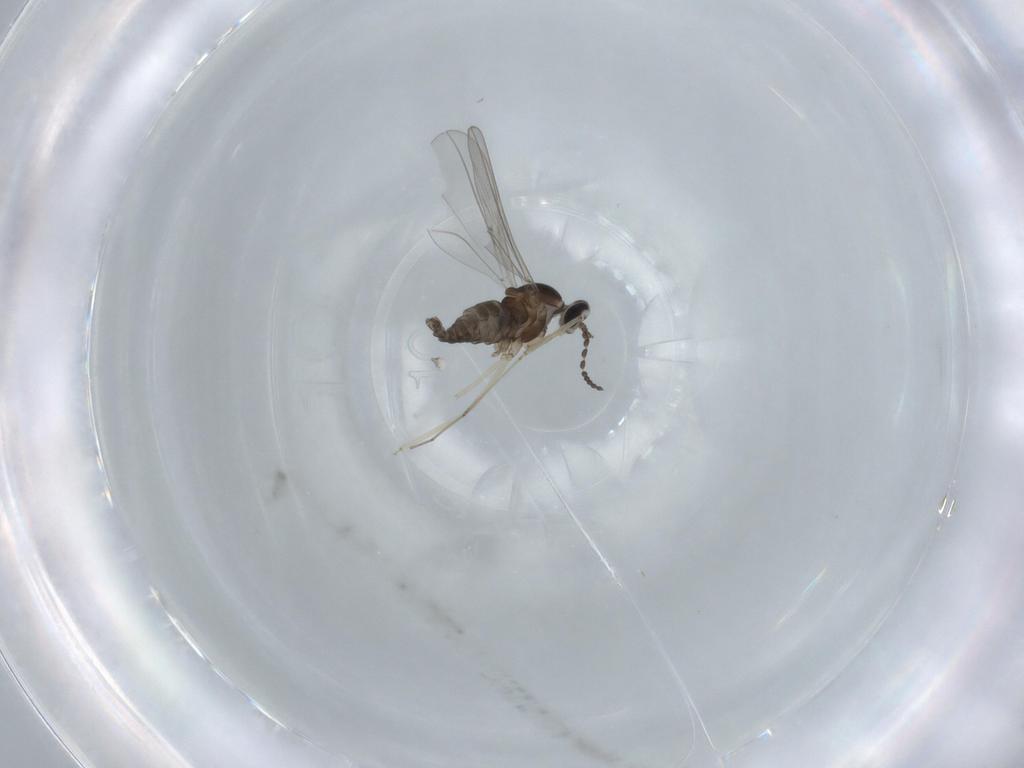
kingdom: Animalia
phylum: Arthropoda
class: Insecta
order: Diptera
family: Cecidomyiidae
